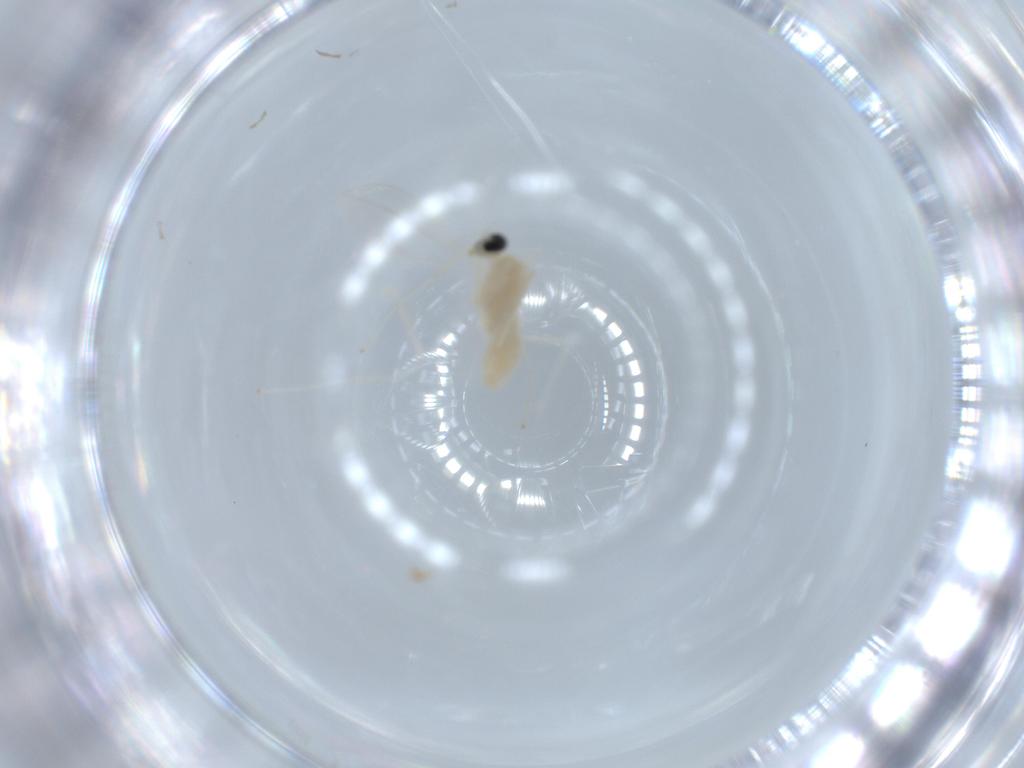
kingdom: Animalia
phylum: Arthropoda
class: Insecta
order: Diptera
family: Cecidomyiidae
